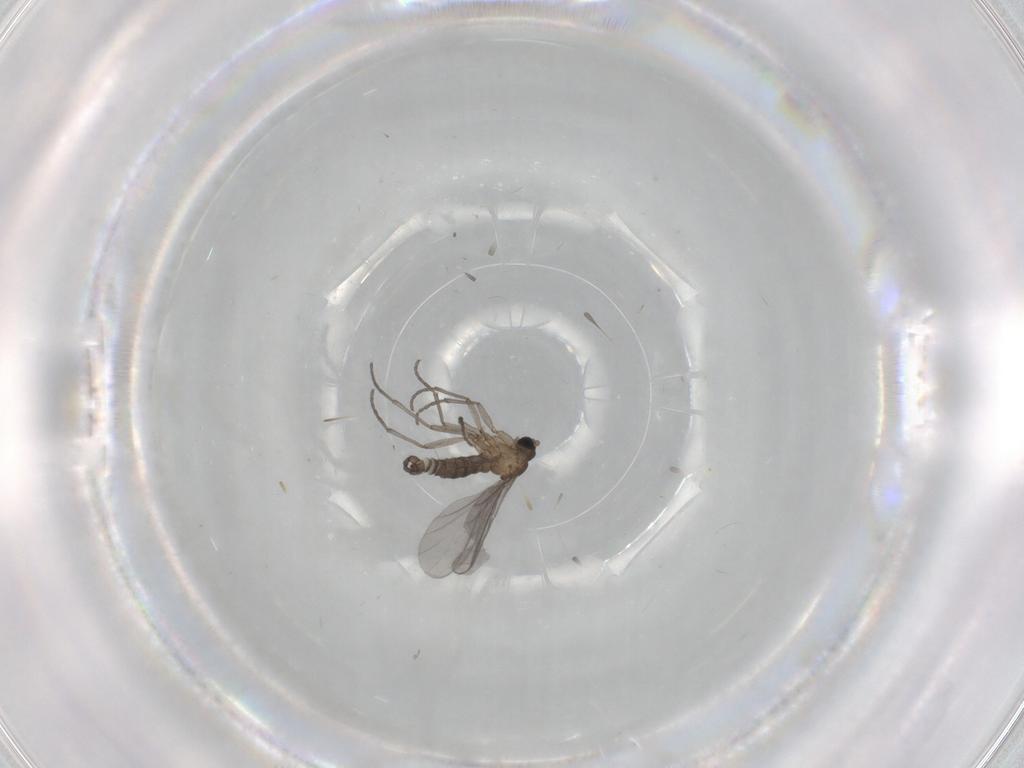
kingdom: Animalia
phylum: Arthropoda
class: Insecta
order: Diptera
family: Sciaridae
